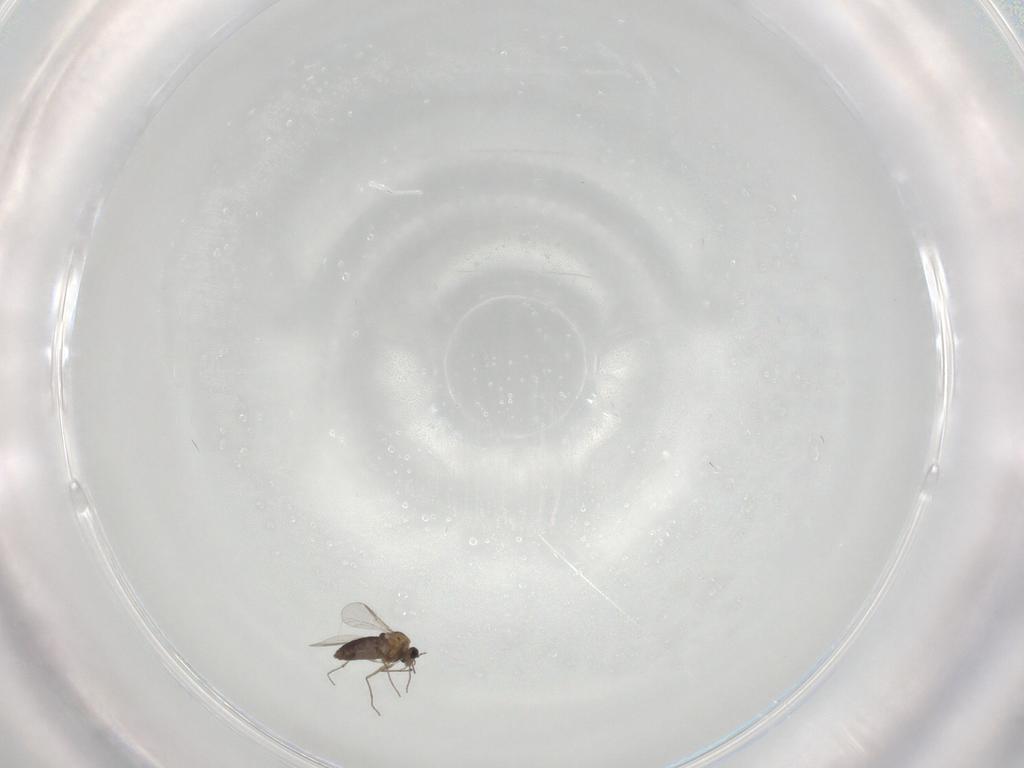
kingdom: Animalia
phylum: Arthropoda
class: Insecta
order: Diptera
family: Chironomidae
